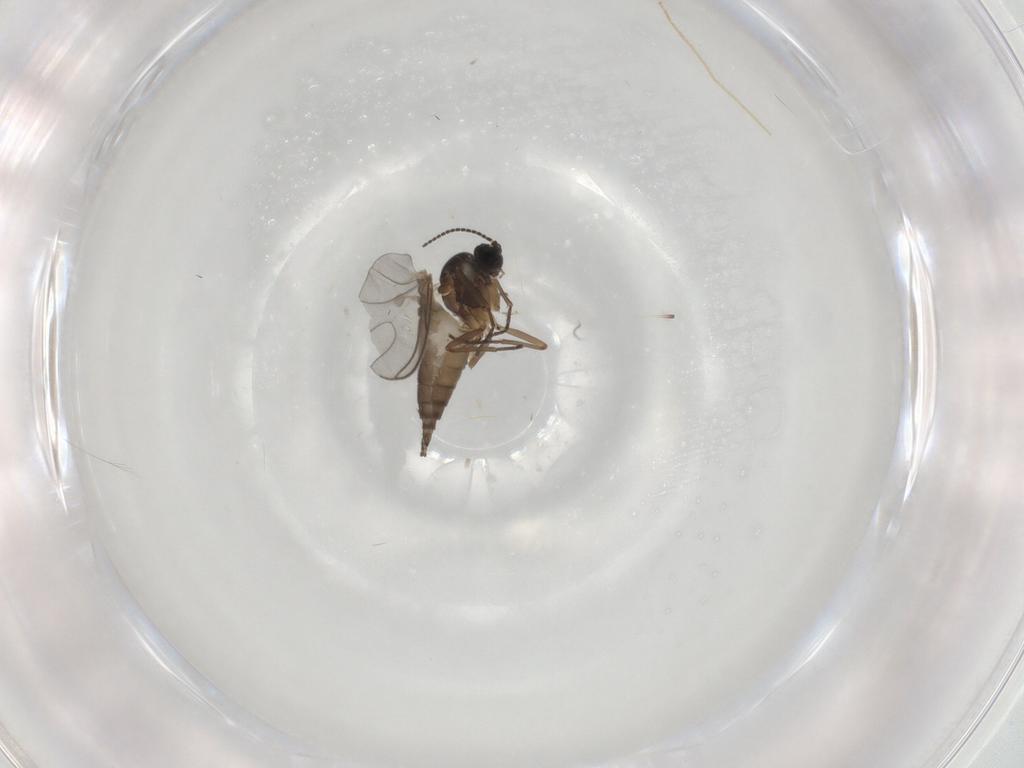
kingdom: Animalia
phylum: Arthropoda
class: Insecta
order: Diptera
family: Sciaridae
